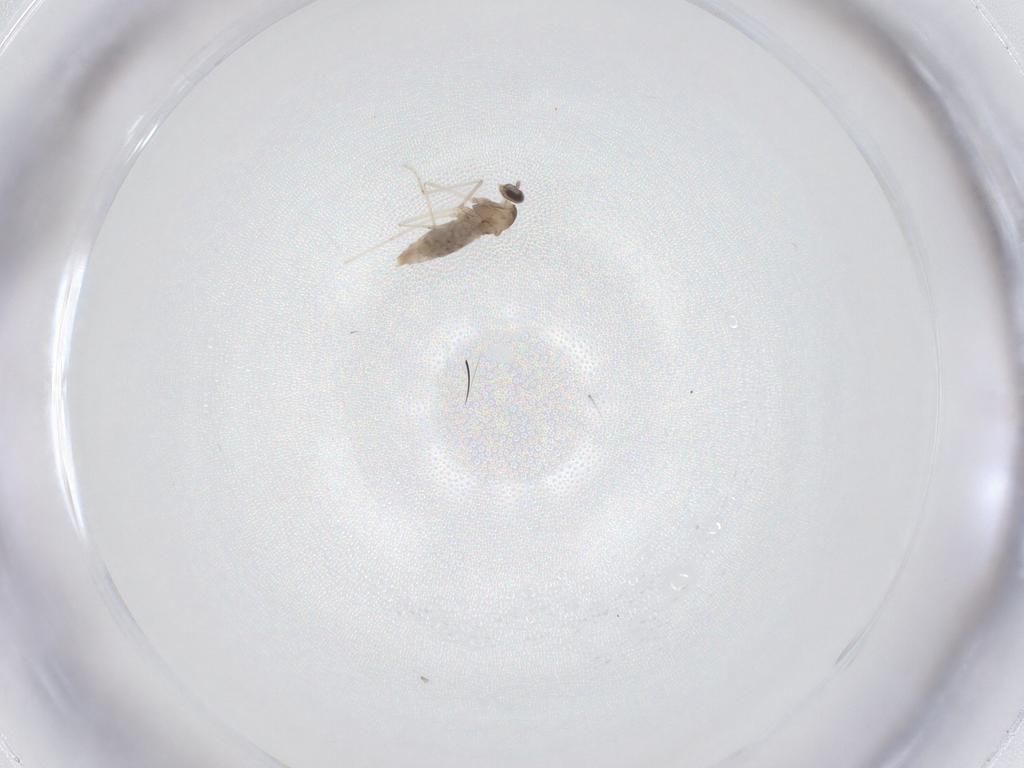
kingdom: Animalia
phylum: Arthropoda
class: Insecta
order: Diptera
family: Cecidomyiidae
